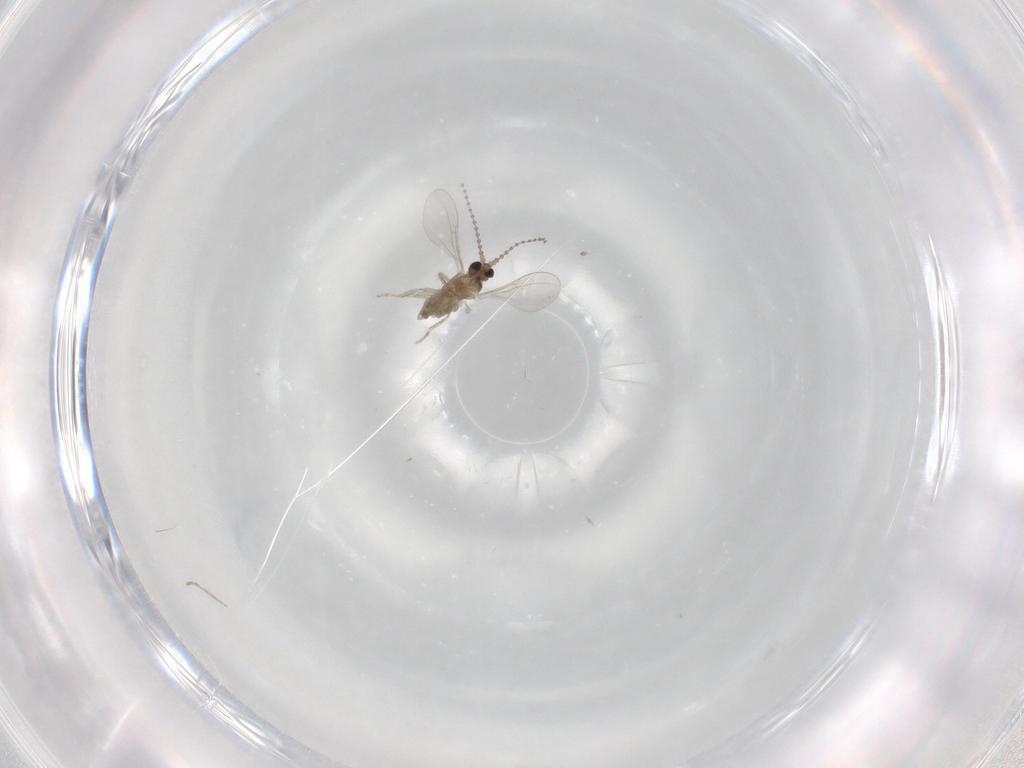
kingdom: Animalia
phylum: Arthropoda
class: Insecta
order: Diptera
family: Cecidomyiidae
